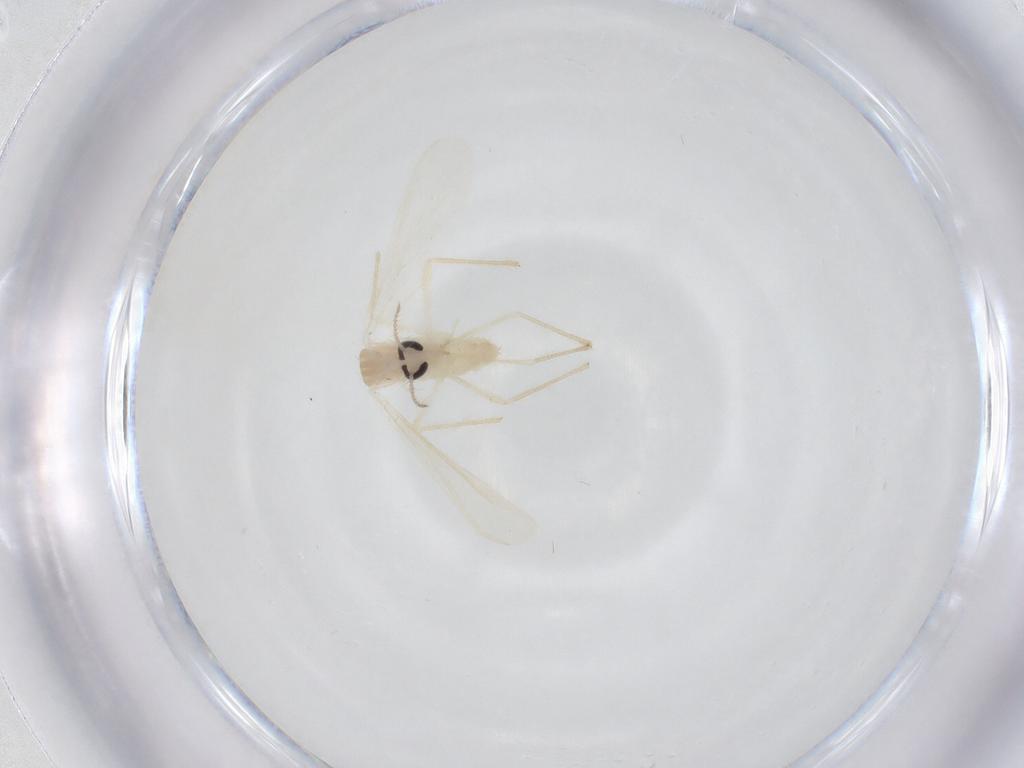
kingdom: Animalia
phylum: Arthropoda
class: Insecta
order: Diptera
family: Chironomidae
